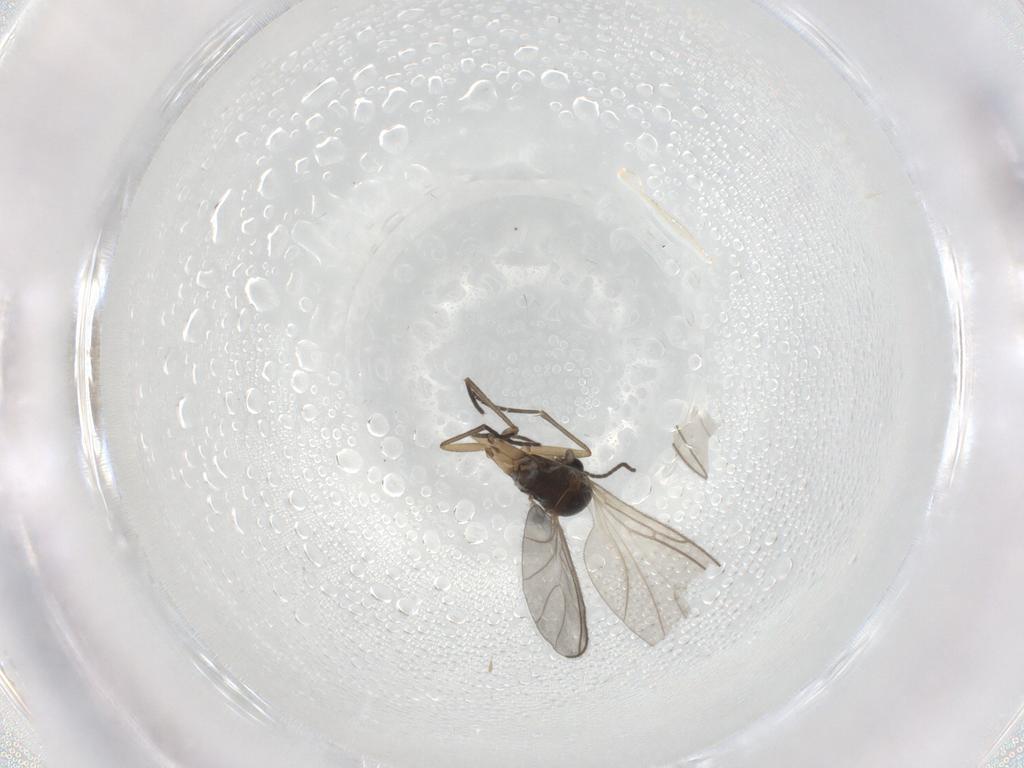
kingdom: Animalia
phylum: Arthropoda
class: Insecta
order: Diptera
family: Sciaridae
